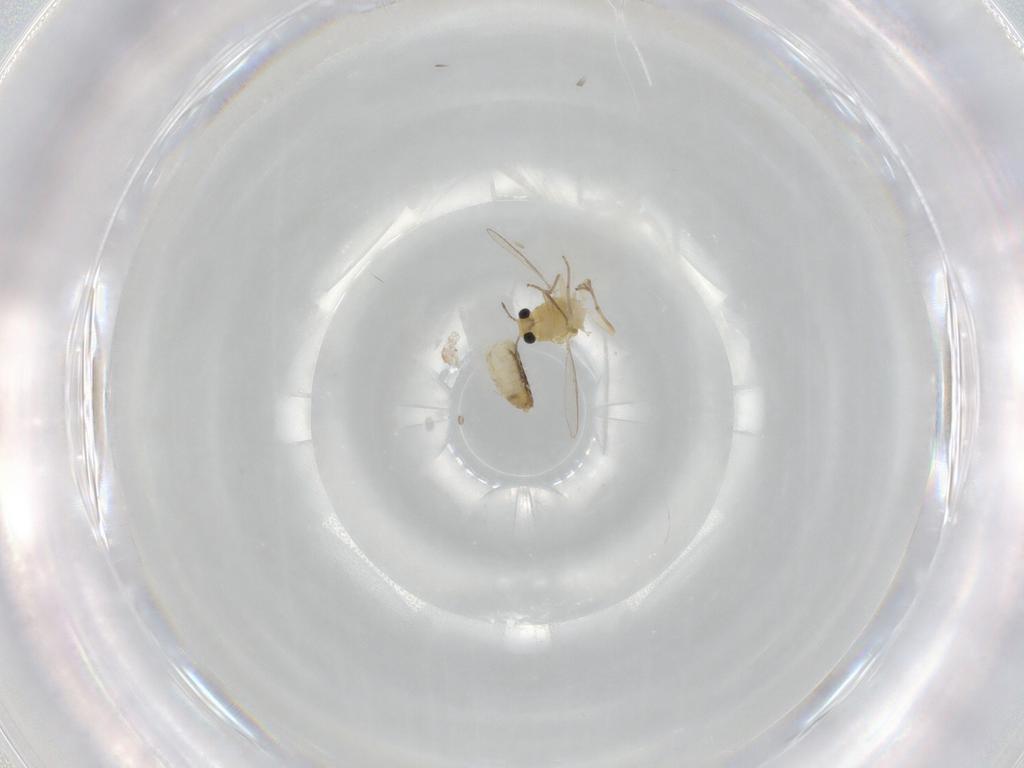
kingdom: Animalia
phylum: Arthropoda
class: Insecta
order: Diptera
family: Chironomidae
